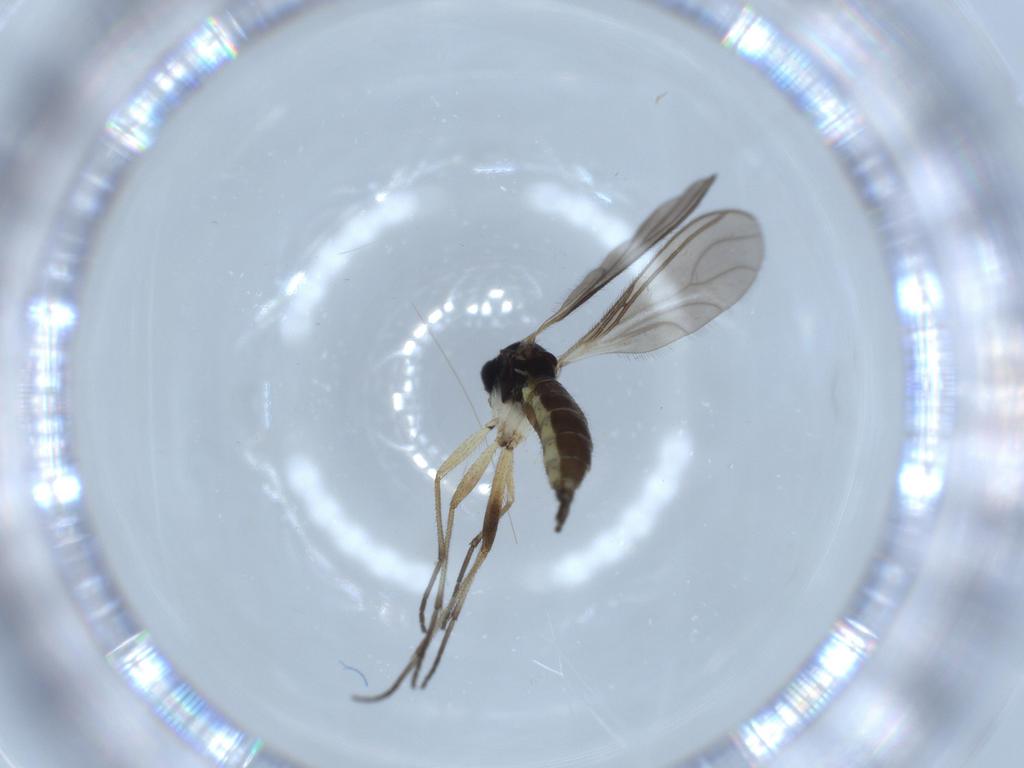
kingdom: Animalia
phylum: Arthropoda
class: Insecta
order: Diptera
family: Sciaridae
